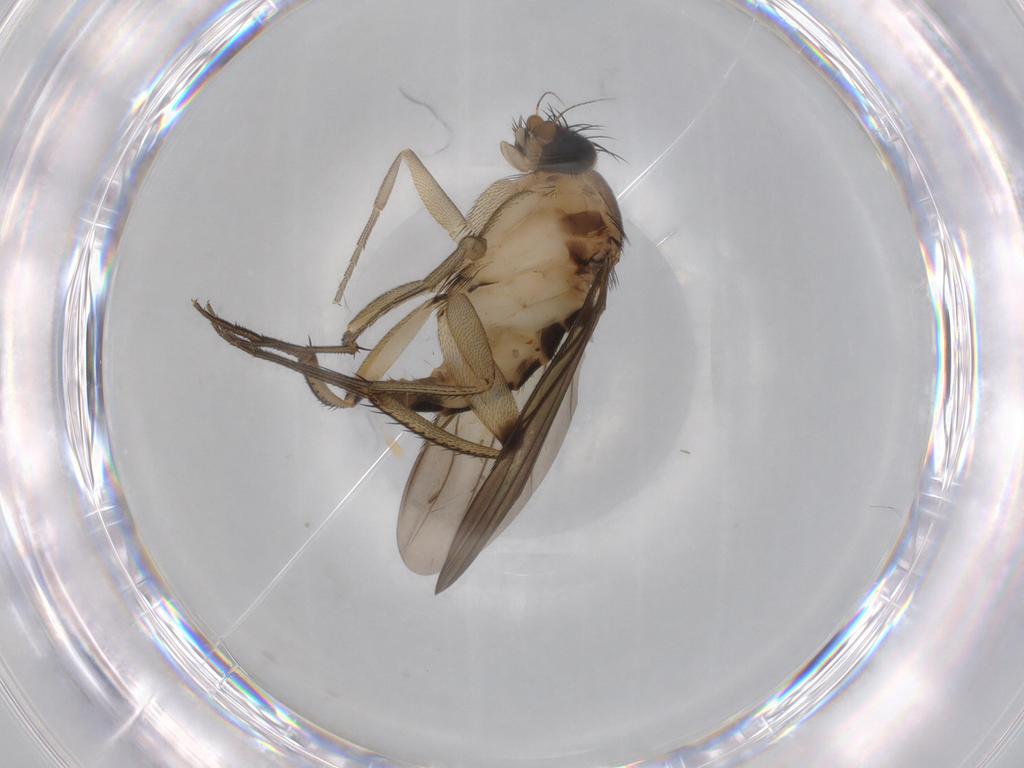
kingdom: Animalia
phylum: Arthropoda
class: Insecta
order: Diptera
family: Phoridae
